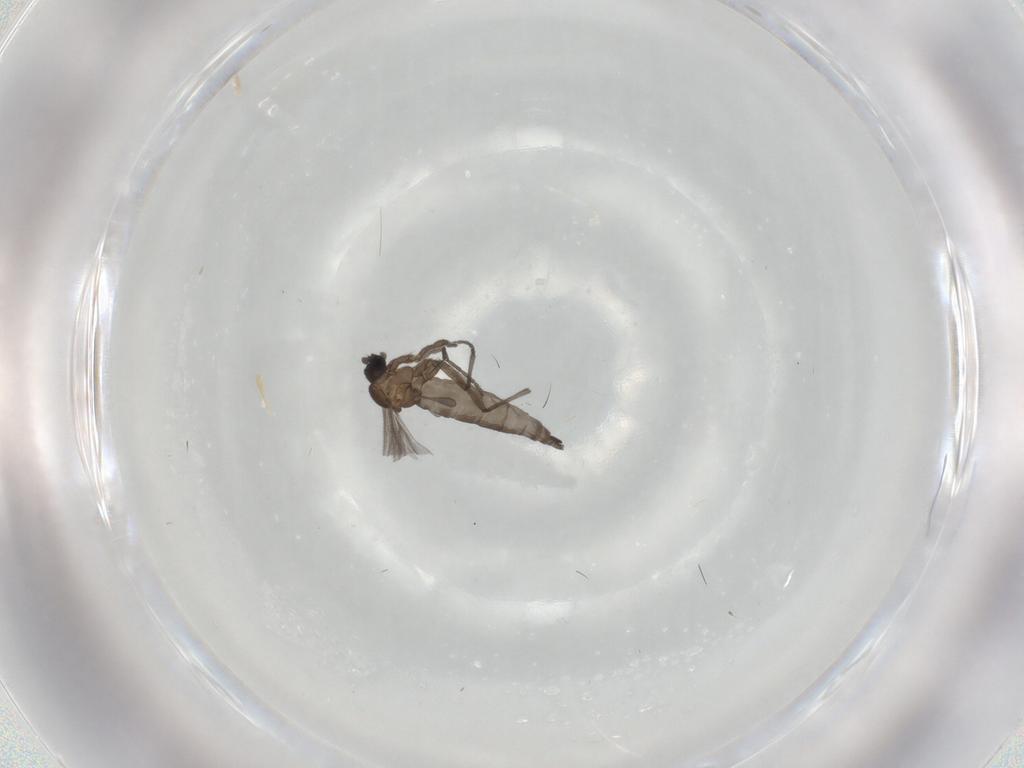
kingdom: Animalia
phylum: Arthropoda
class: Insecta
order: Diptera
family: Sciaridae
